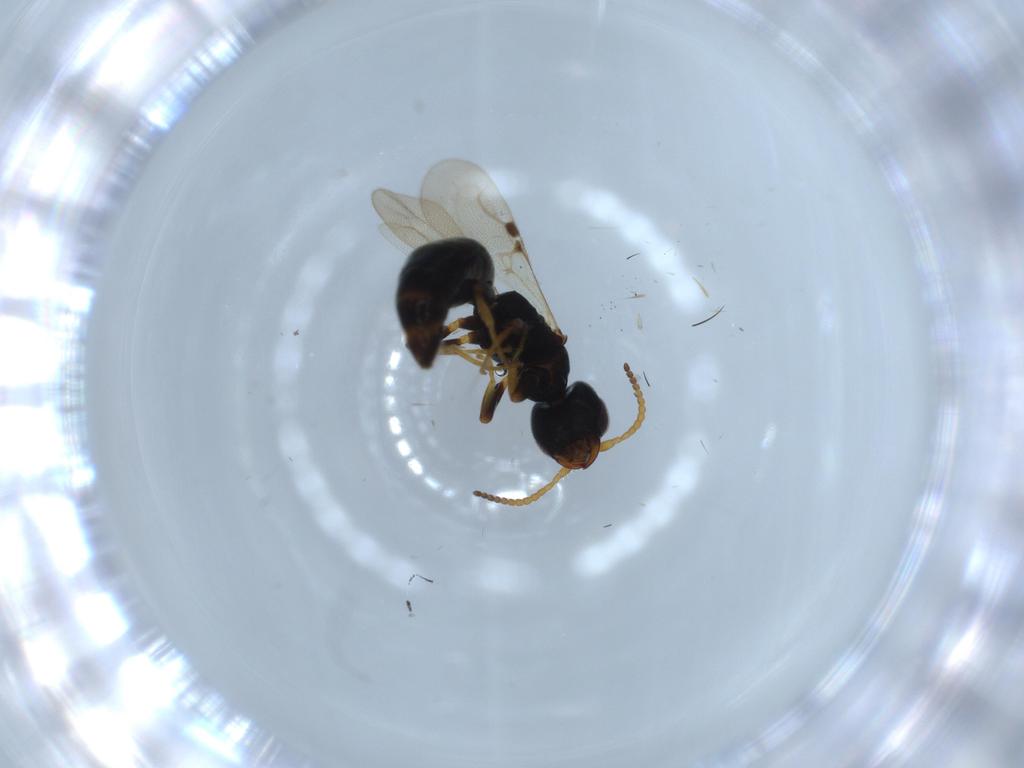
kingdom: Animalia
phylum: Arthropoda
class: Insecta
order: Hymenoptera
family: Bethylidae
